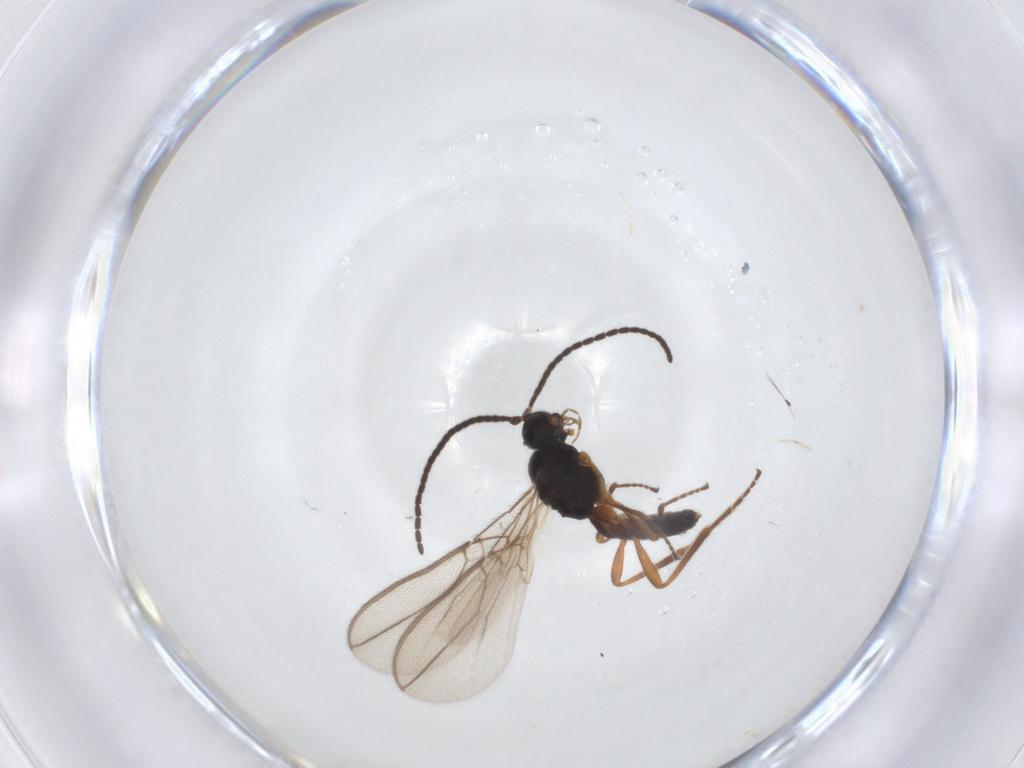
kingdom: Animalia
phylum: Arthropoda
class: Insecta
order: Hymenoptera
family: Braconidae
